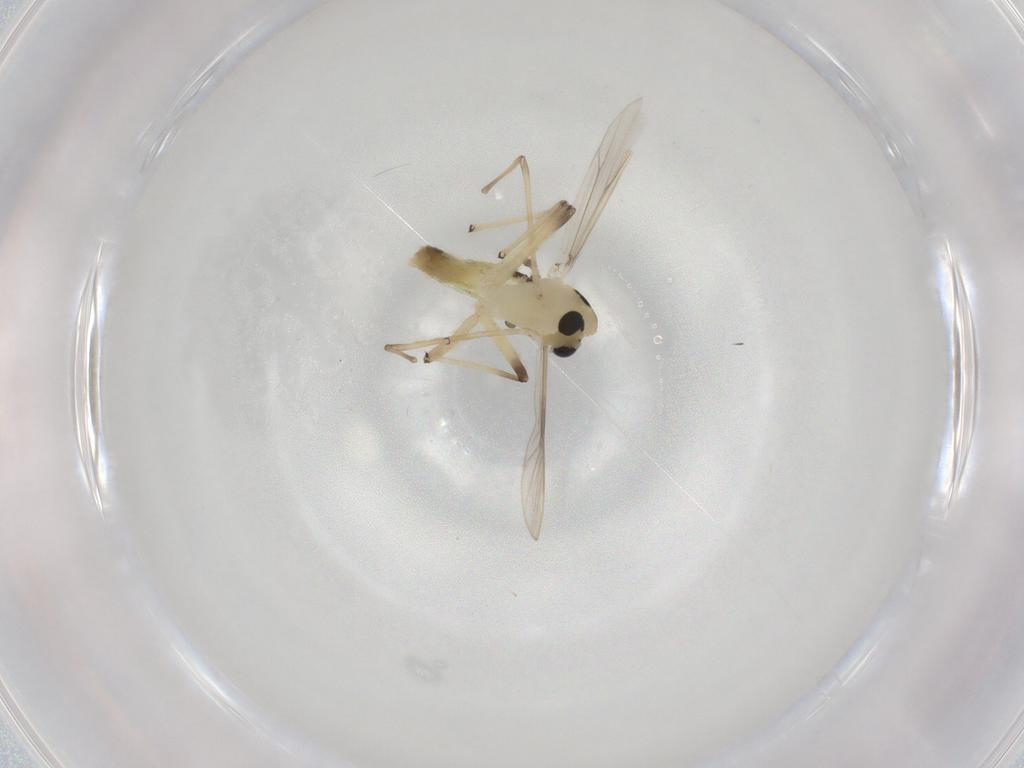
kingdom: Animalia
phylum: Arthropoda
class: Insecta
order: Diptera
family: Chironomidae
